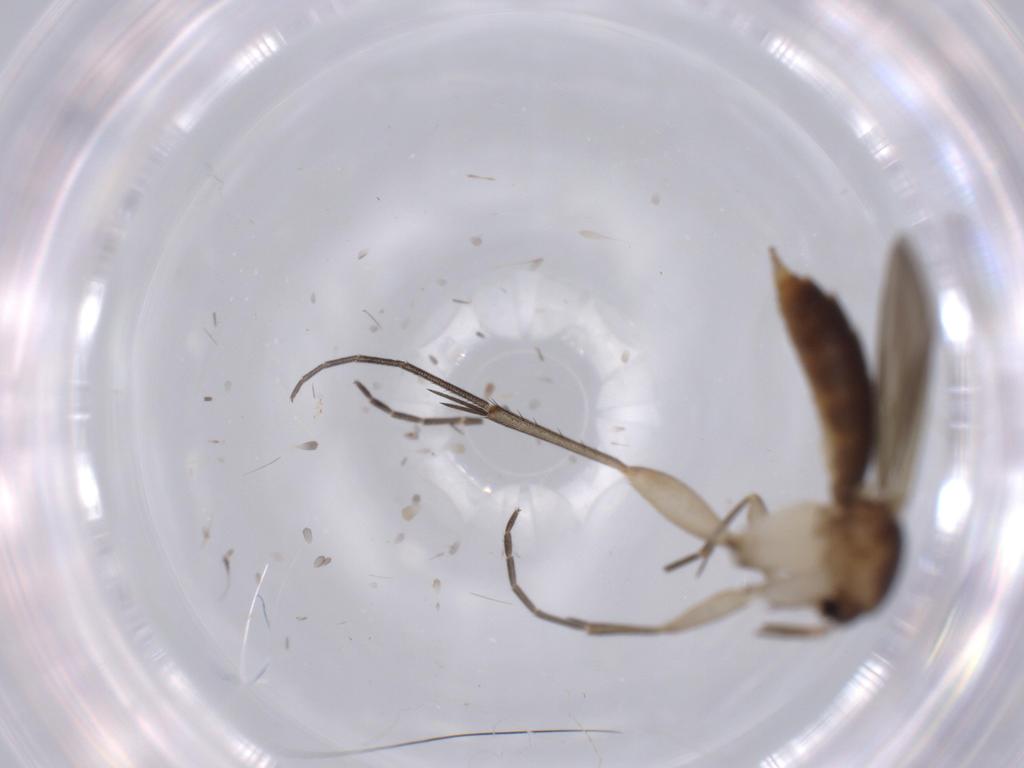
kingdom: Animalia
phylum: Arthropoda
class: Insecta
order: Diptera
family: Mycetophilidae
